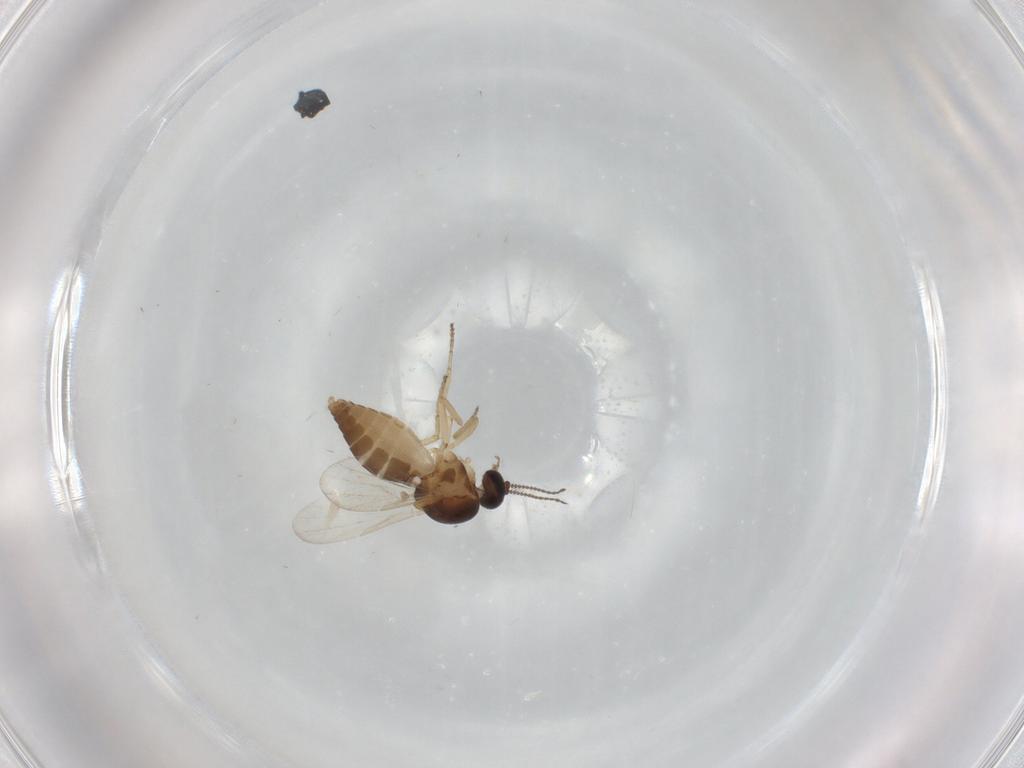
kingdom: Animalia
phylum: Arthropoda
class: Insecta
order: Diptera
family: Ceratopogonidae
